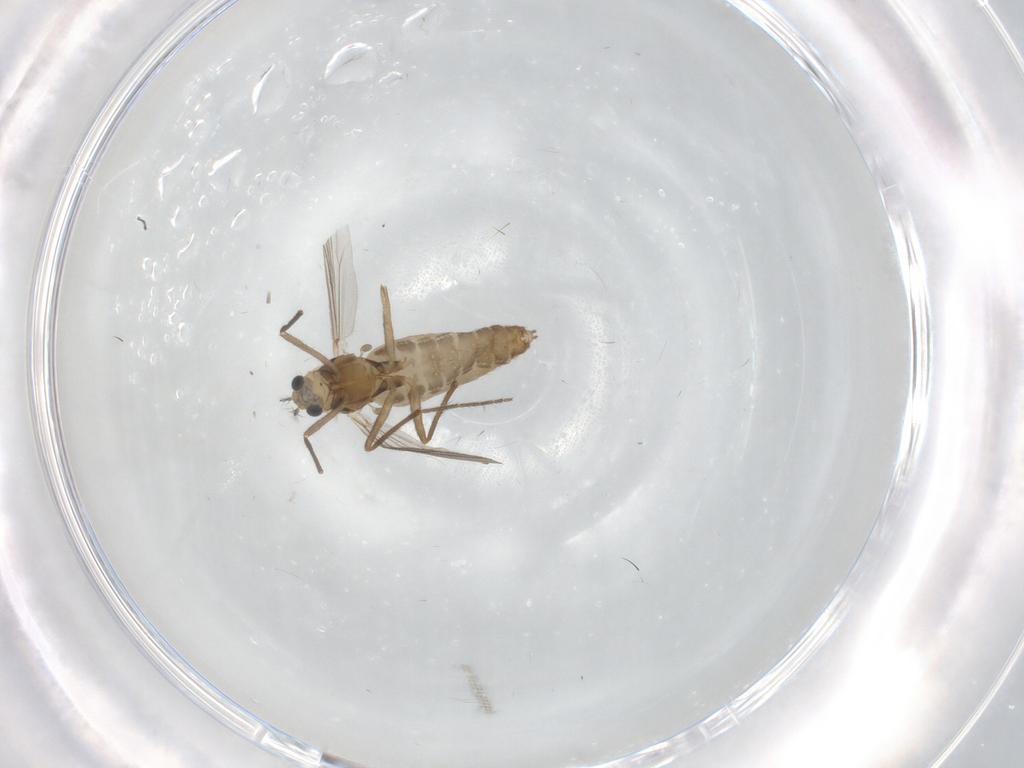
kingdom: Animalia
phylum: Arthropoda
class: Insecta
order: Diptera
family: Chironomidae
